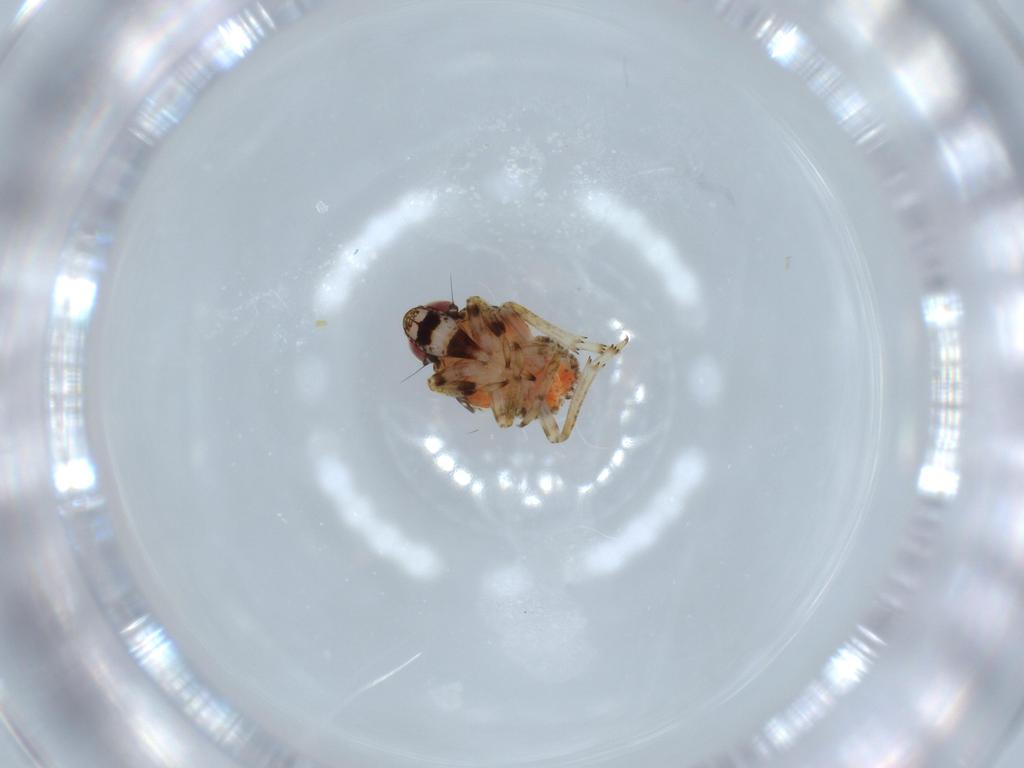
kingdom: Animalia
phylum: Arthropoda
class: Insecta
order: Hemiptera
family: Issidae
